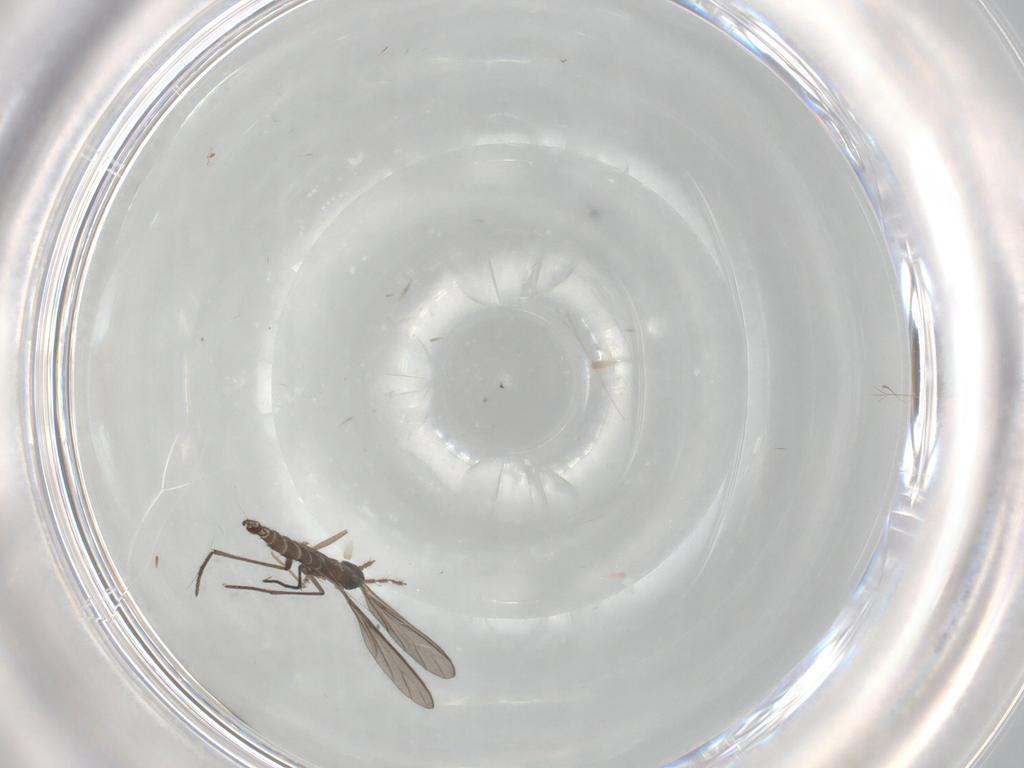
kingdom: Animalia
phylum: Arthropoda
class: Insecta
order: Diptera
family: Sciaridae
